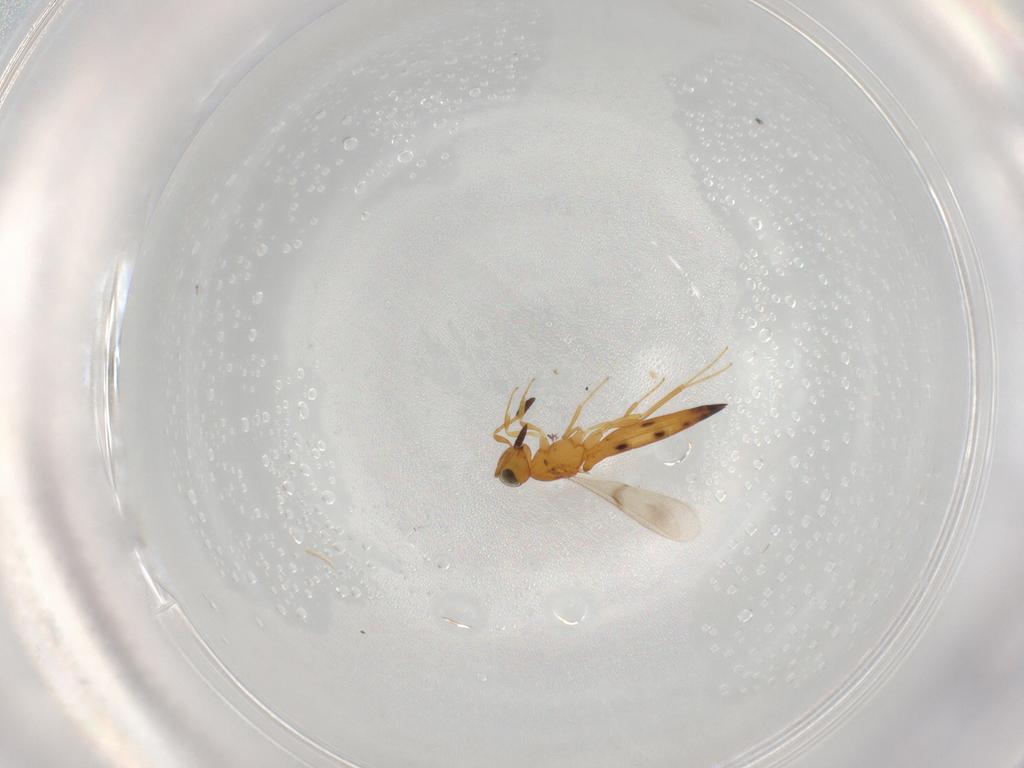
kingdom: Animalia
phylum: Arthropoda
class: Insecta
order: Hymenoptera
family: Scelionidae
